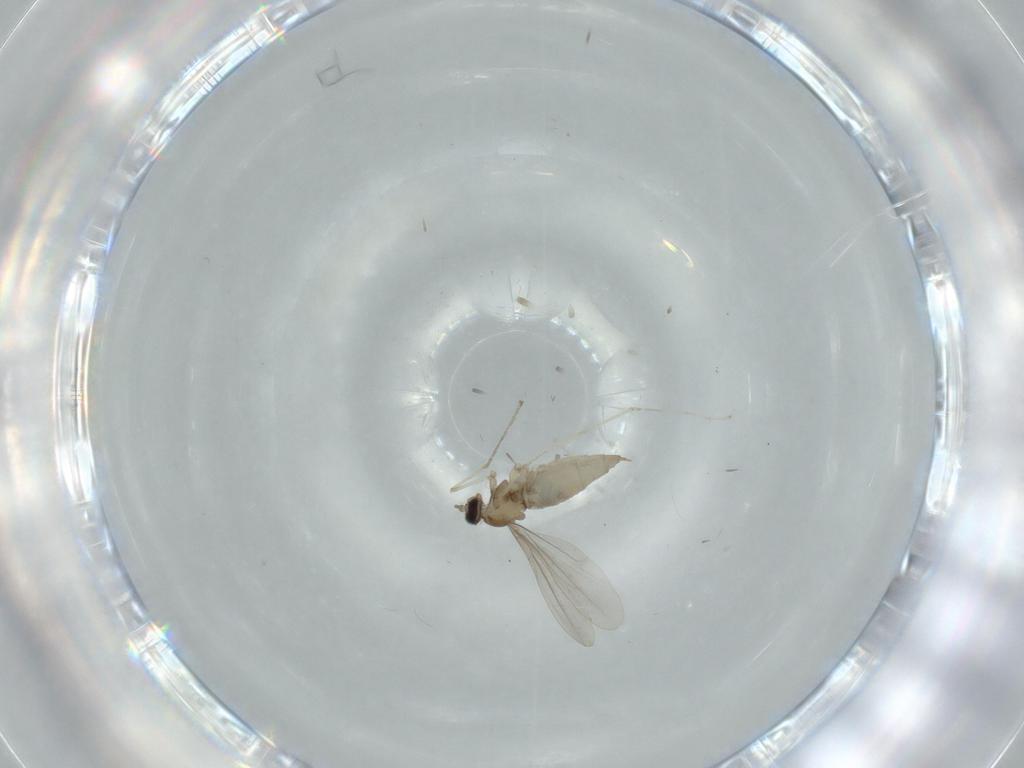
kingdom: Animalia
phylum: Arthropoda
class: Insecta
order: Diptera
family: Cecidomyiidae
